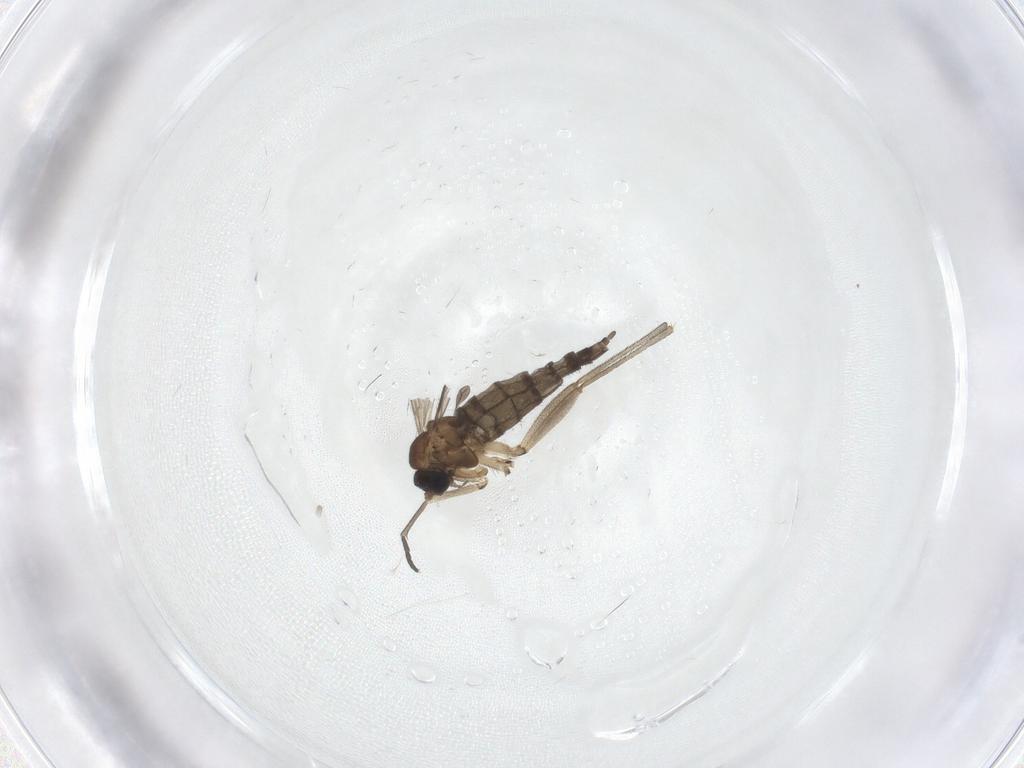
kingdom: Animalia
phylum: Arthropoda
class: Insecta
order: Diptera
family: Sciaridae
